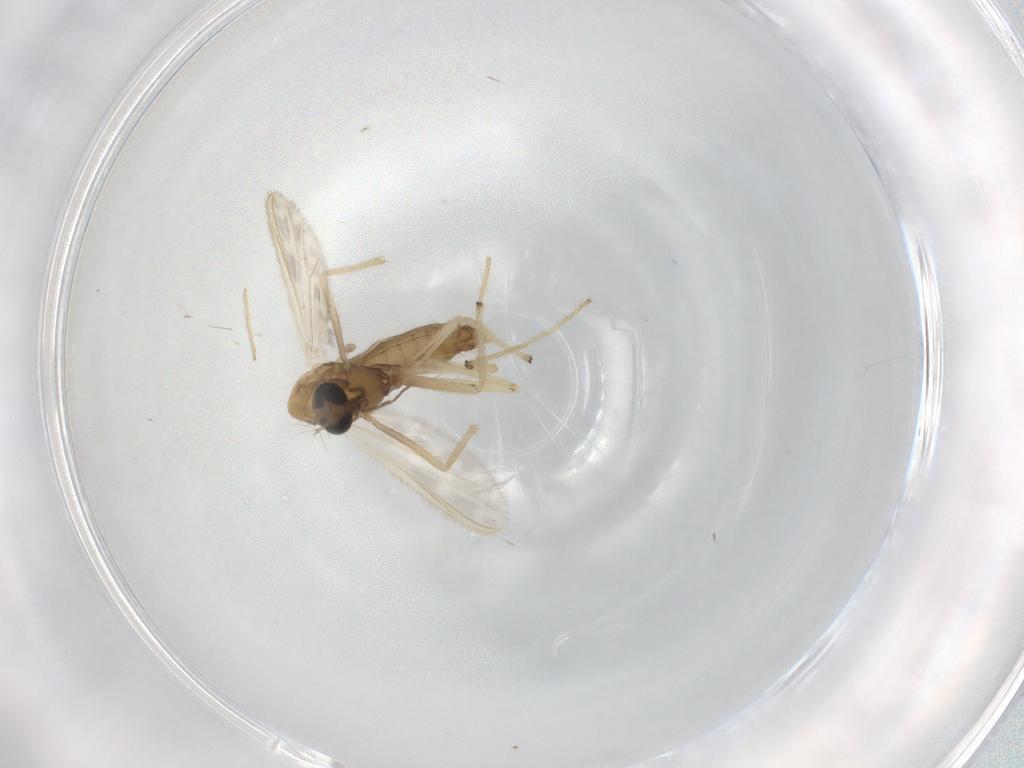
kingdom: Animalia
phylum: Arthropoda
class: Insecta
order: Diptera
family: Chironomidae
